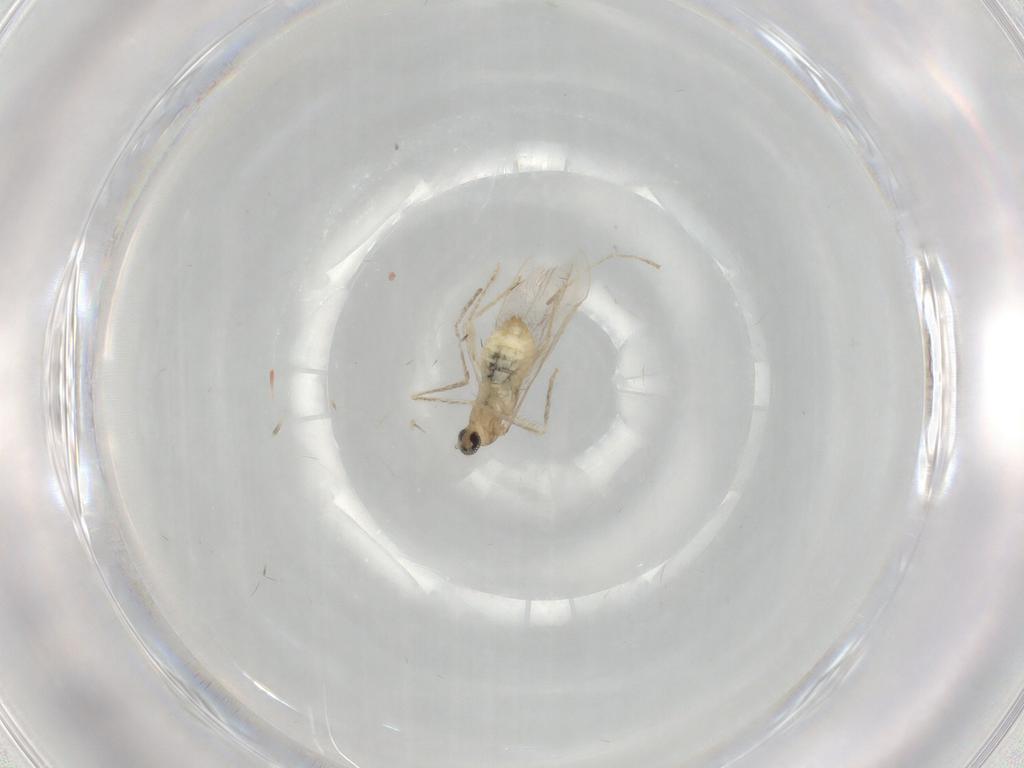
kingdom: Animalia
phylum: Arthropoda
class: Insecta
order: Diptera
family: Cecidomyiidae
